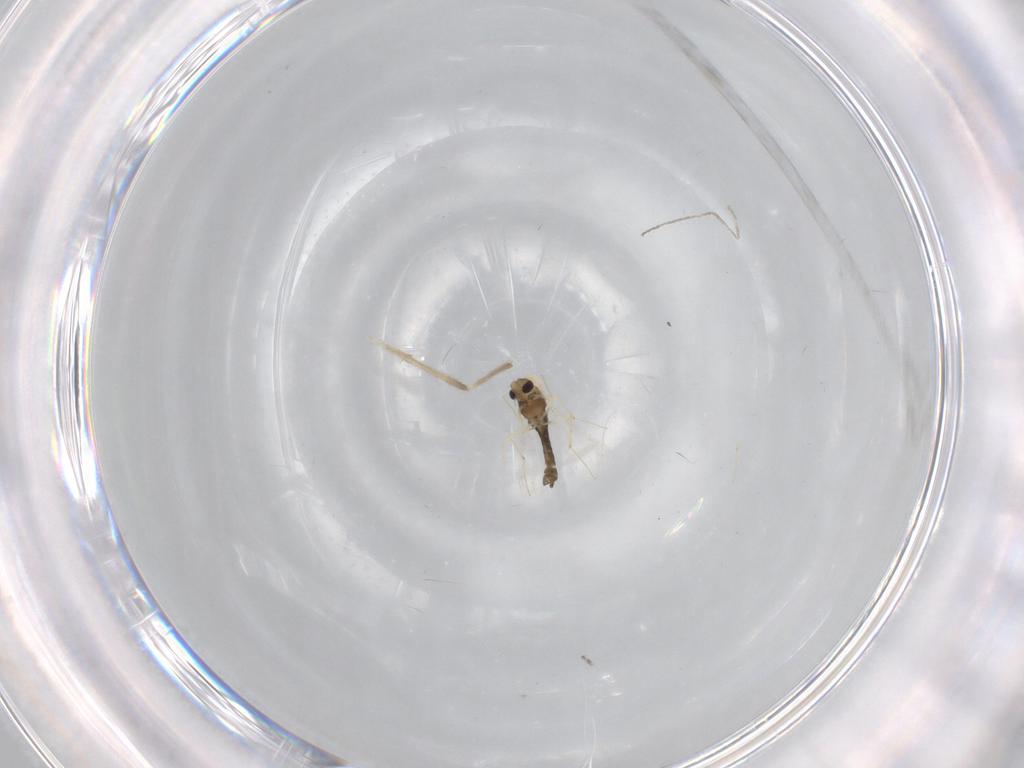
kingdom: Animalia
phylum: Arthropoda
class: Insecta
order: Diptera
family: Chironomidae
